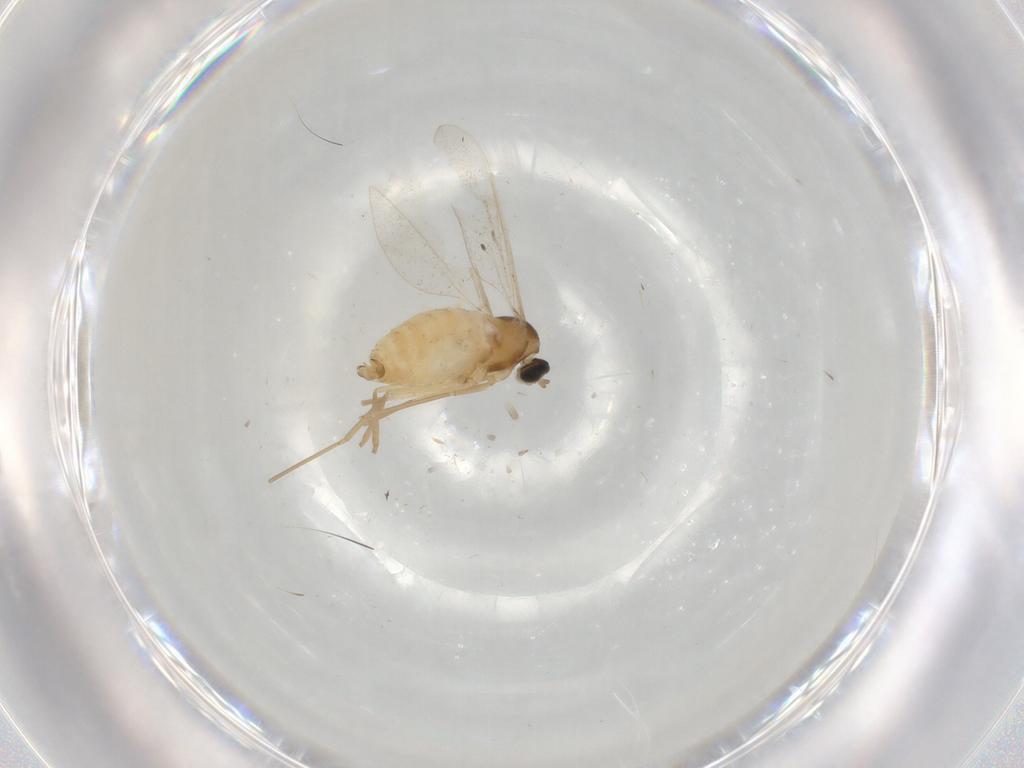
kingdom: Animalia
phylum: Arthropoda
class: Insecta
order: Diptera
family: Cecidomyiidae
